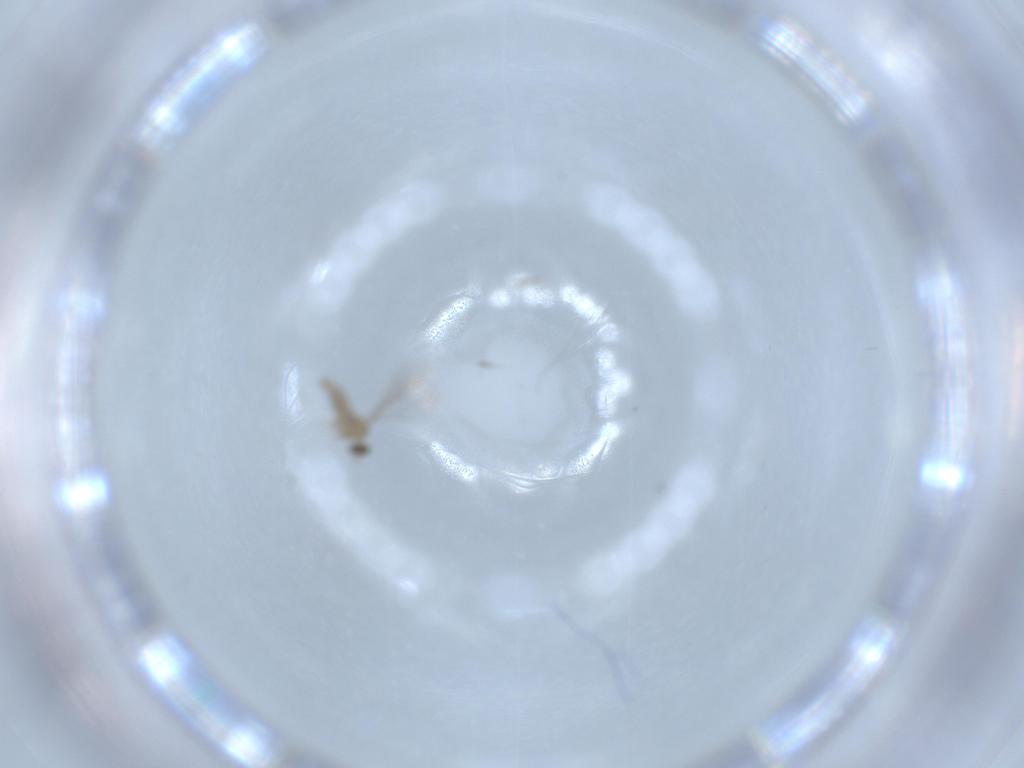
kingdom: Animalia
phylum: Arthropoda
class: Insecta
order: Diptera
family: Cecidomyiidae
